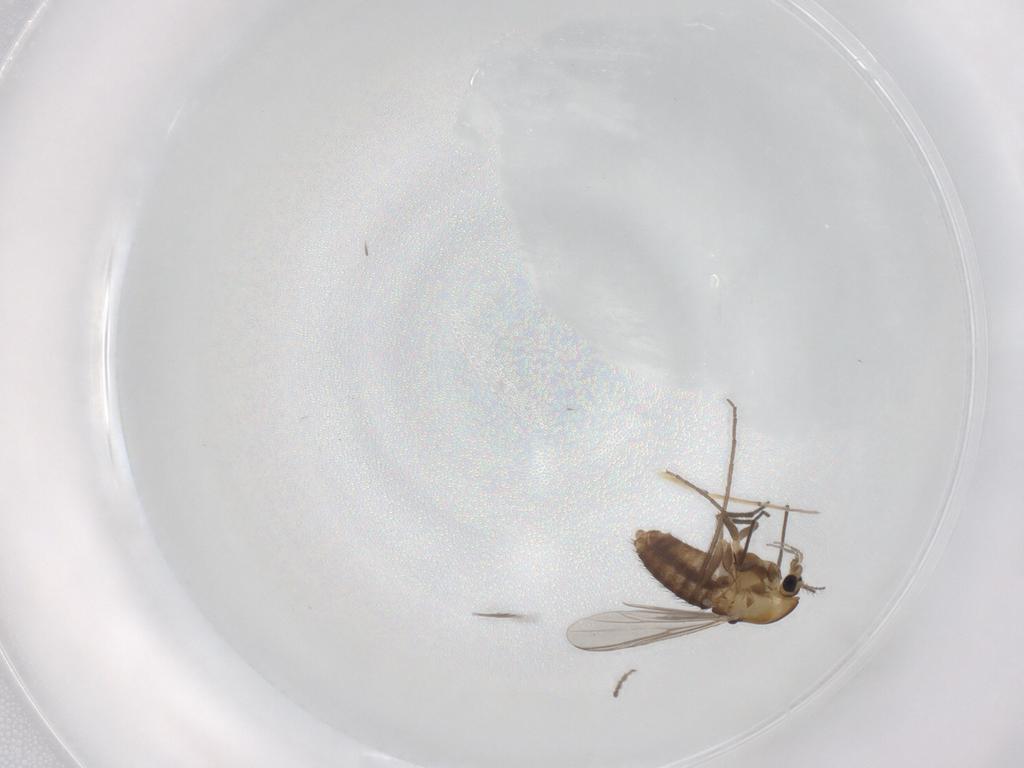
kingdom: Animalia
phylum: Arthropoda
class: Insecta
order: Diptera
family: Chironomidae
